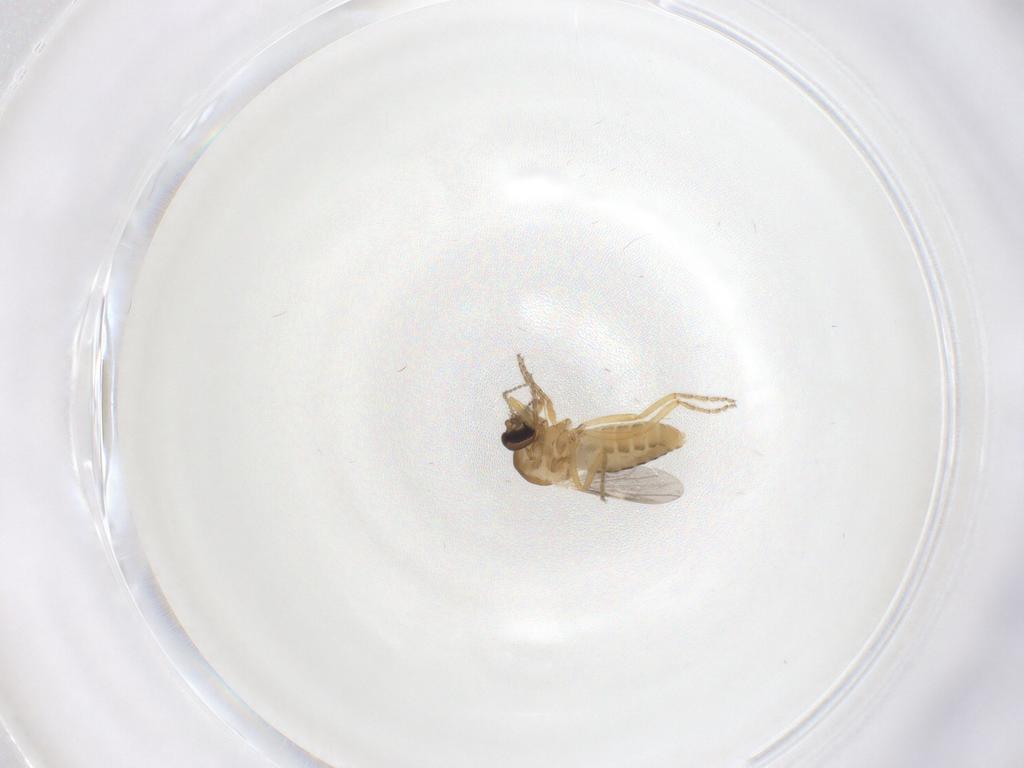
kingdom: Animalia
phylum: Arthropoda
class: Insecta
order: Diptera
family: Ceratopogonidae
